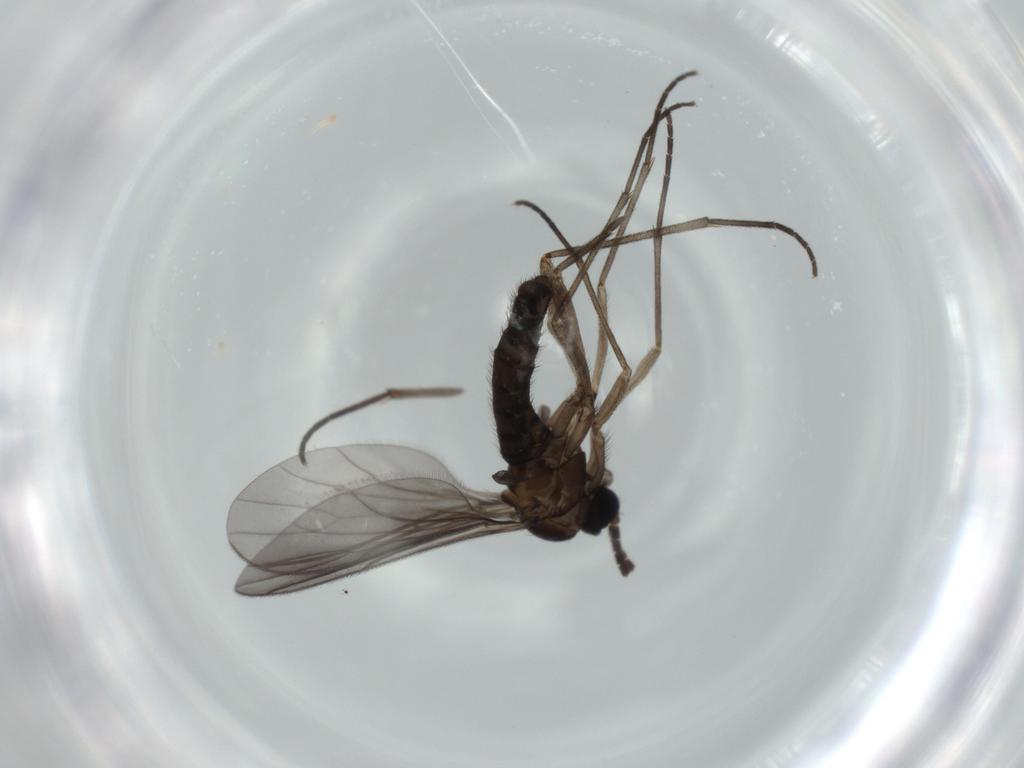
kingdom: Animalia
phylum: Arthropoda
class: Insecta
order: Diptera
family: Sciaridae
